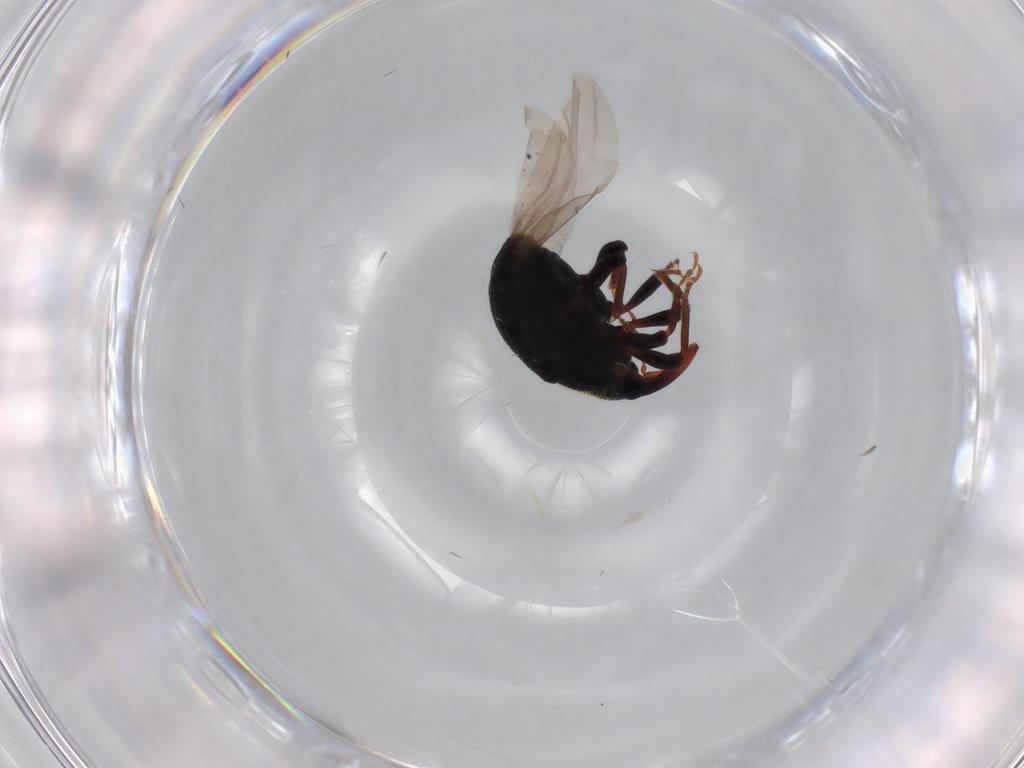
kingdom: Animalia
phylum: Arthropoda
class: Insecta
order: Coleoptera
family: Curculionidae
